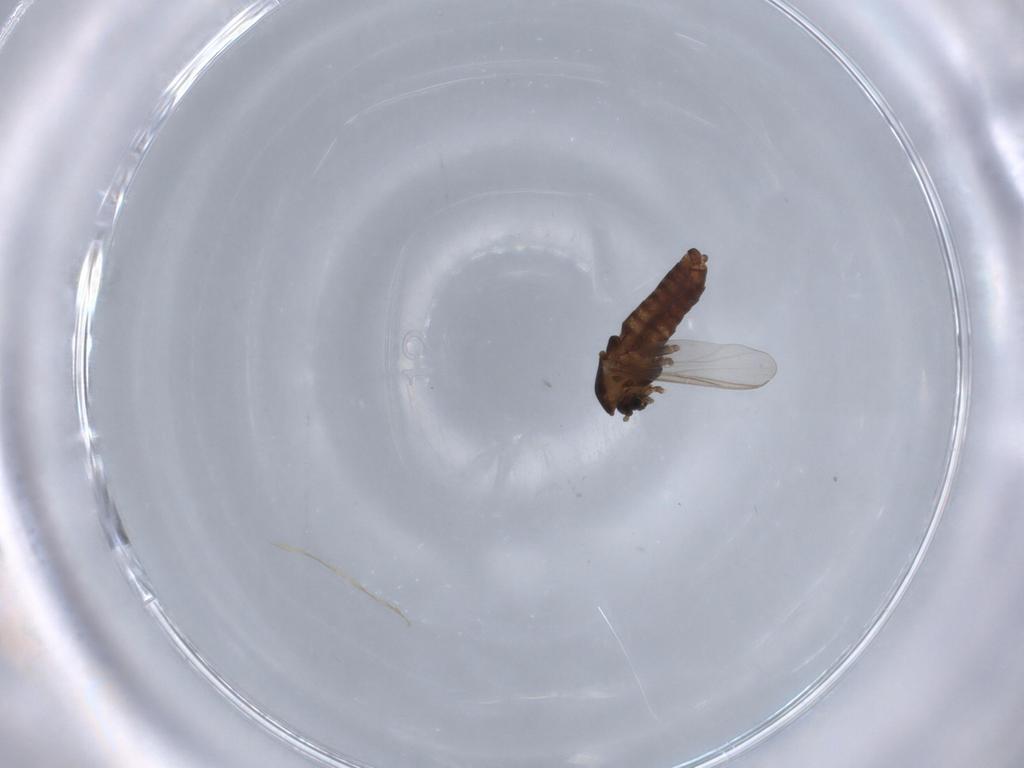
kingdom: Animalia
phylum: Arthropoda
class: Insecta
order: Diptera
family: Chironomidae
